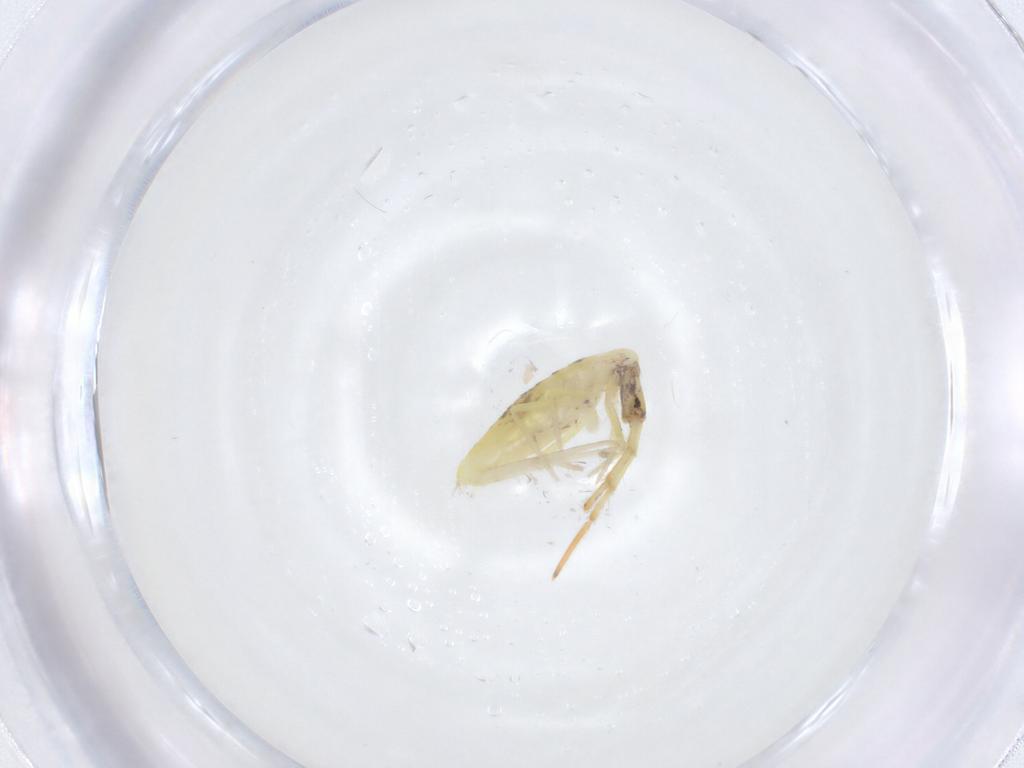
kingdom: Animalia
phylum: Arthropoda
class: Collembola
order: Entomobryomorpha
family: Entomobryidae
